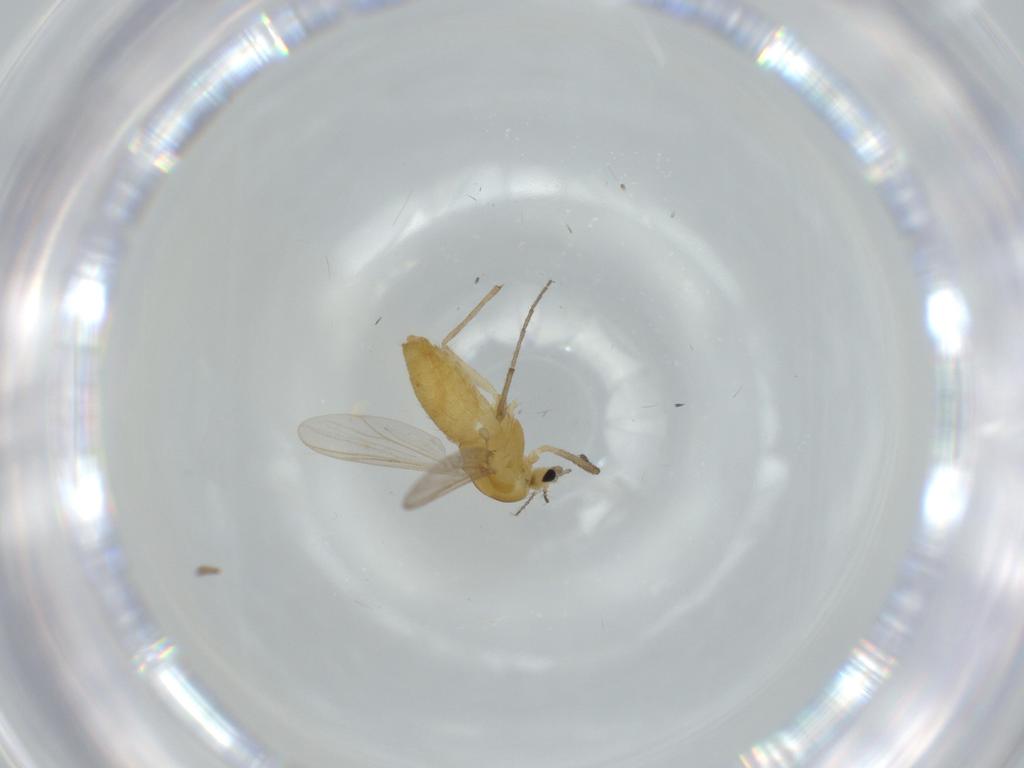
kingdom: Animalia
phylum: Arthropoda
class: Insecta
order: Diptera
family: Chironomidae
